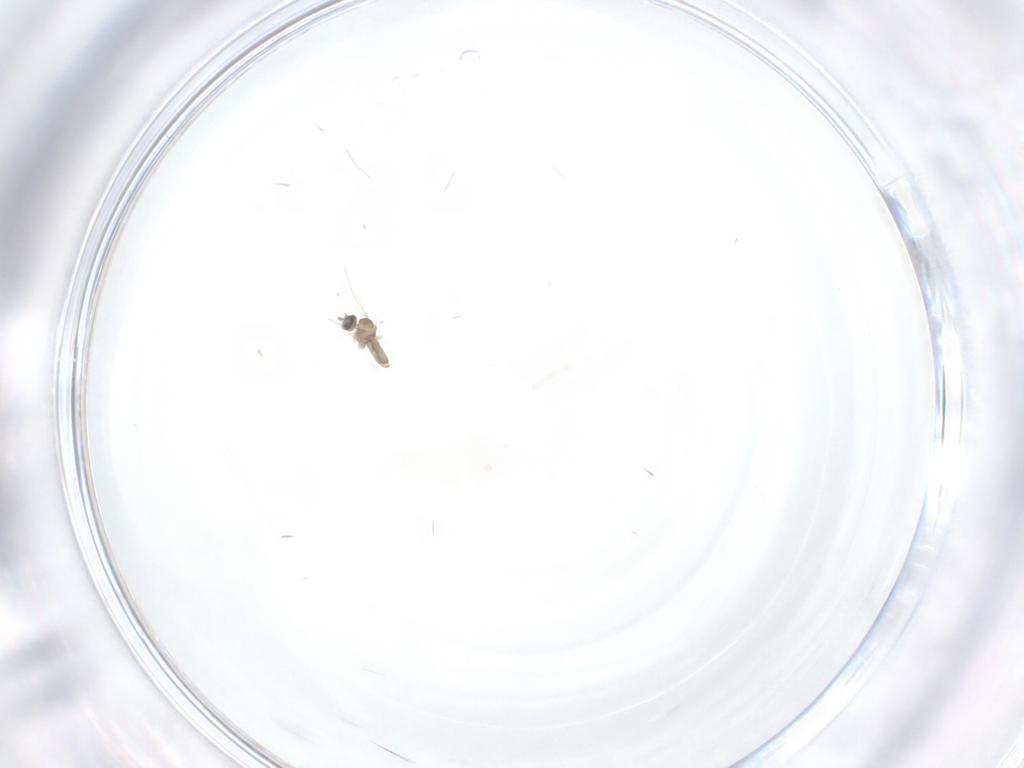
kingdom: Animalia
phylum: Arthropoda
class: Insecta
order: Diptera
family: Cecidomyiidae
